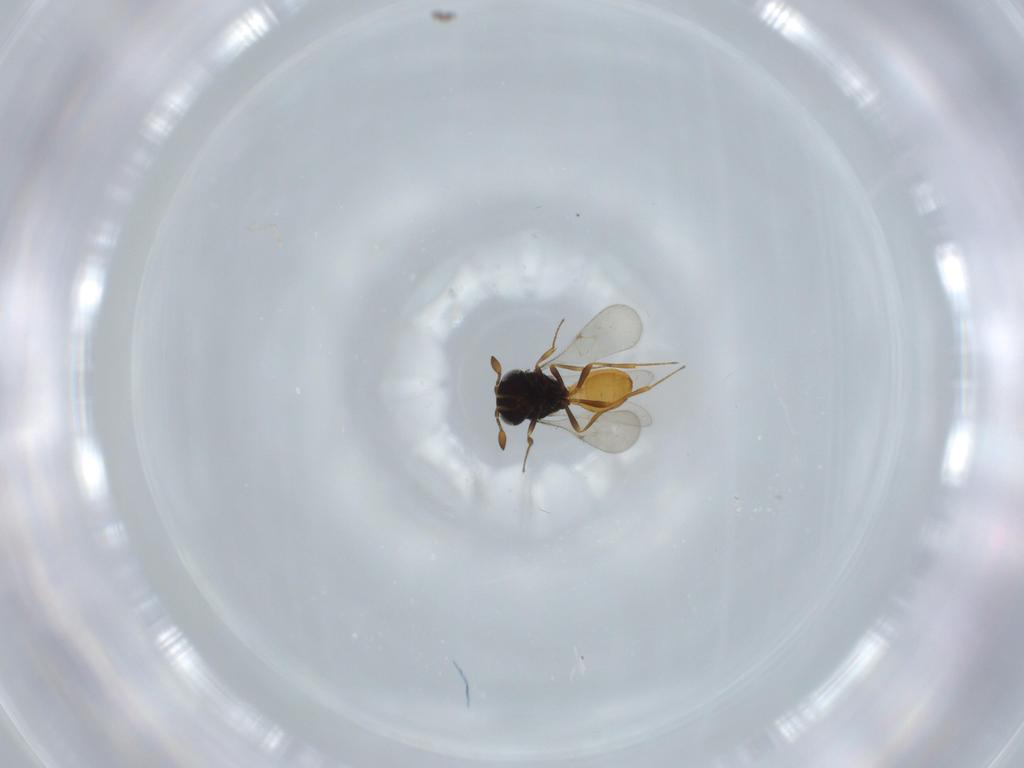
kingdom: Animalia
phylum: Arthropoda
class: Insecta
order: Hymenoptera
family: Scelionidae
